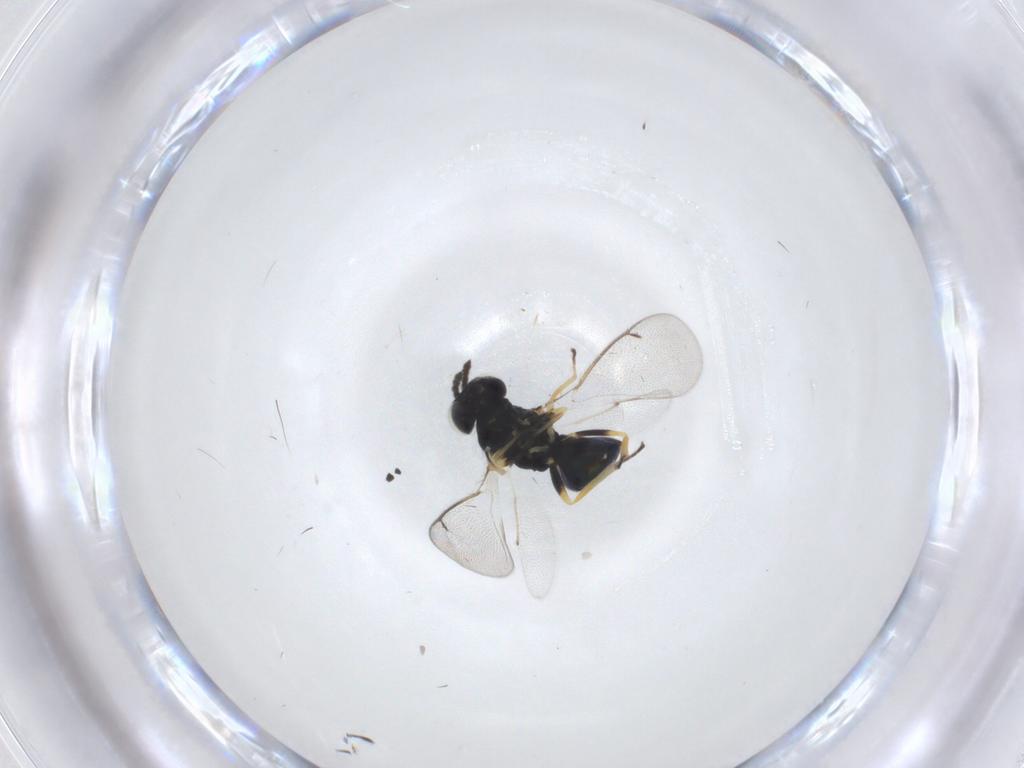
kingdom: Animalia
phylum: Arthropoda
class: Insecta
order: Hymenoptera
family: Eulophidae
